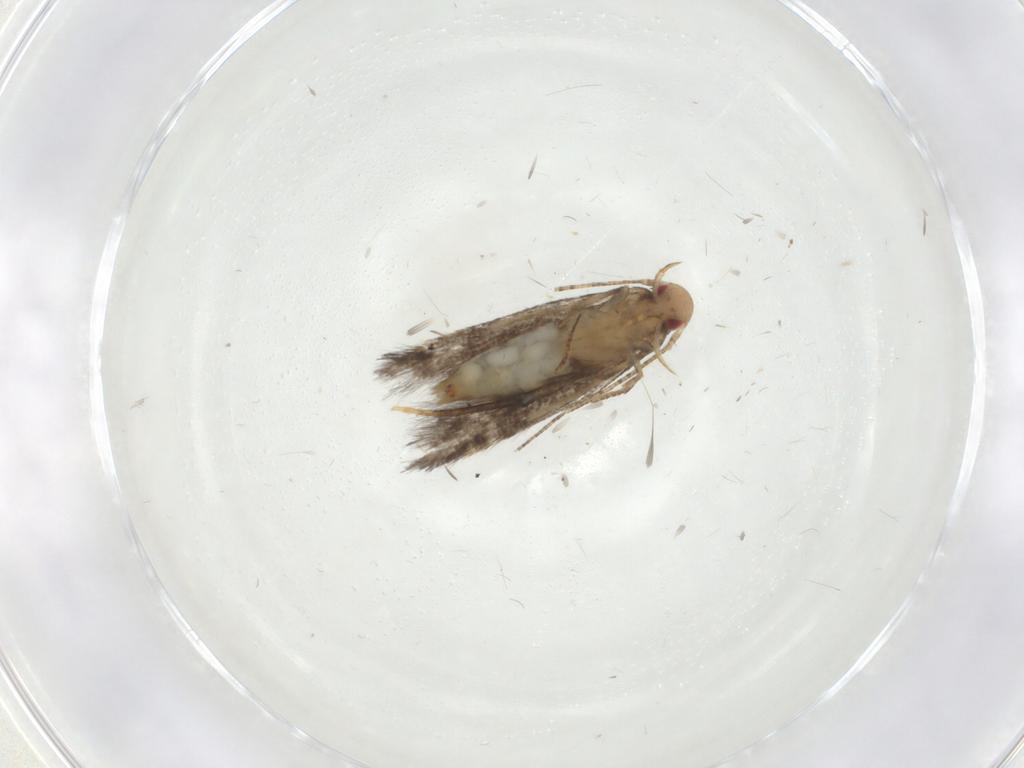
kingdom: Animalia
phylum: Arthropoda
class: Insecta
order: Lepidoptera
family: Momphidae
